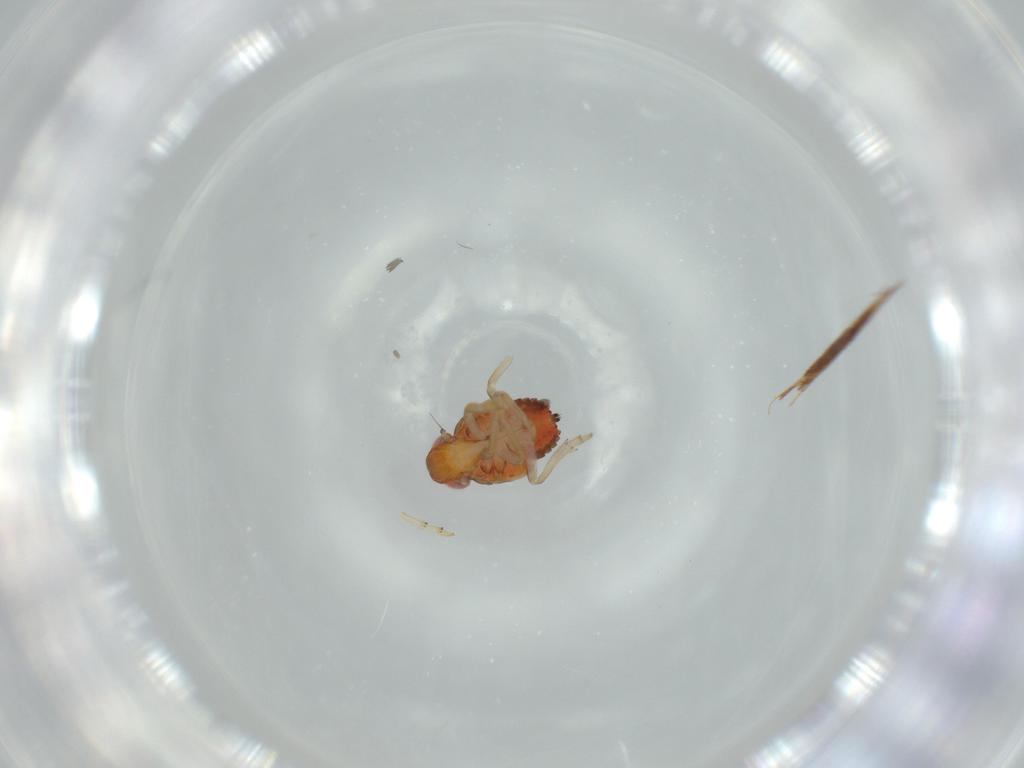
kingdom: Animalia
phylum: Arthropoda
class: Insecta
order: Hemiptera
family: Issidae
